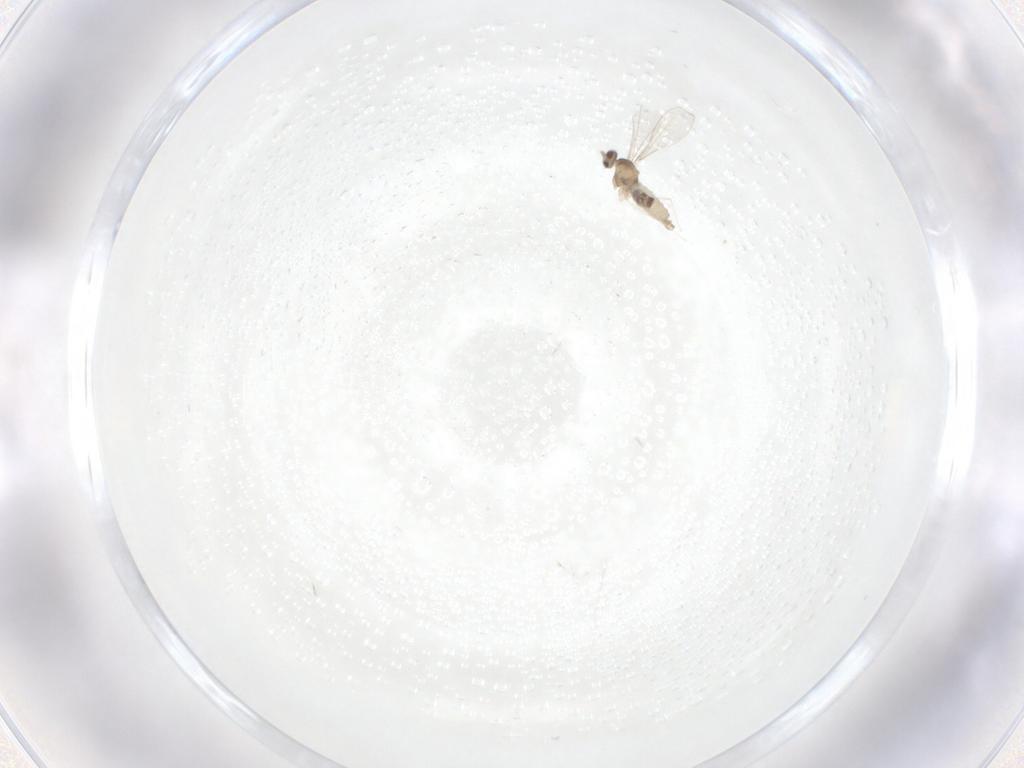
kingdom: Animalia
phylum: Arthropoda
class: Insecta
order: Diptera
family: Cecidomyiidae
